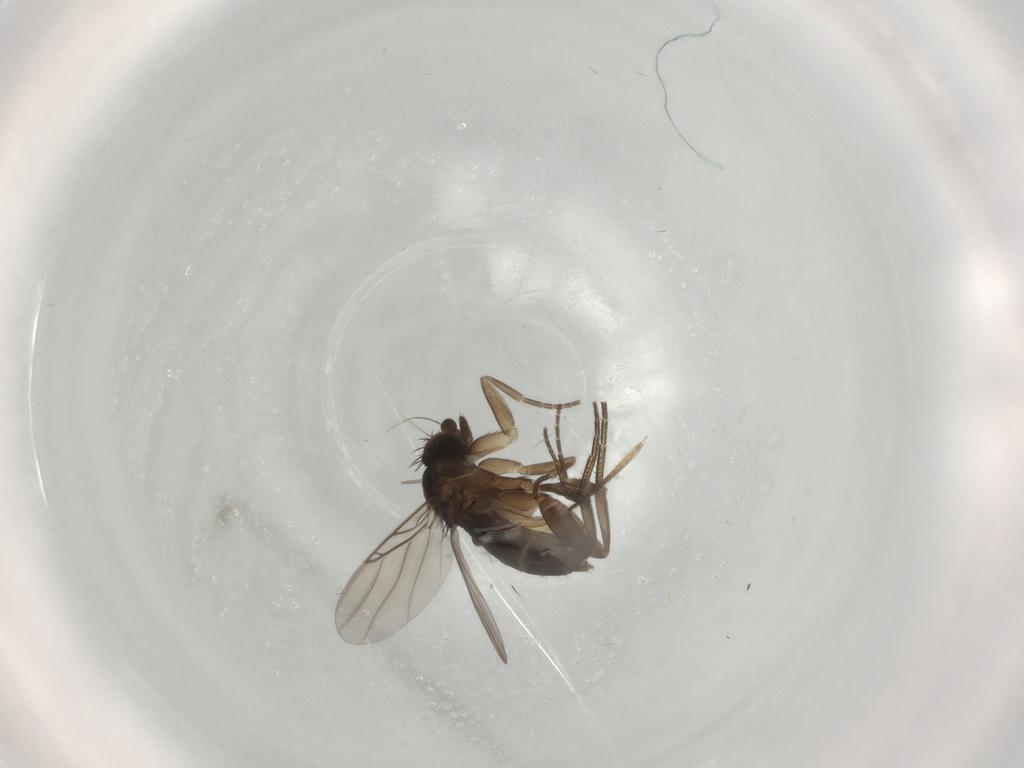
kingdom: Animalia
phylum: Arthropoda
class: Insecta
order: Diptera
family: Phoridae
